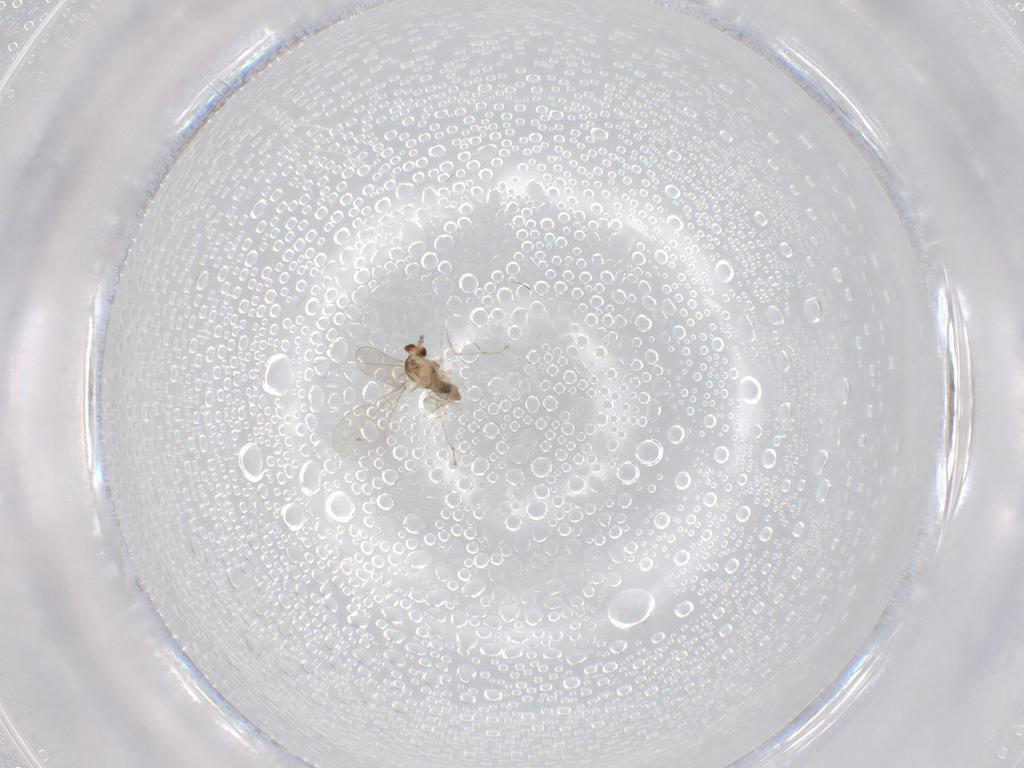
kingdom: Animalia
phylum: Arthropoda
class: Insecta
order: Diptera
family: Cecidomyiidae
